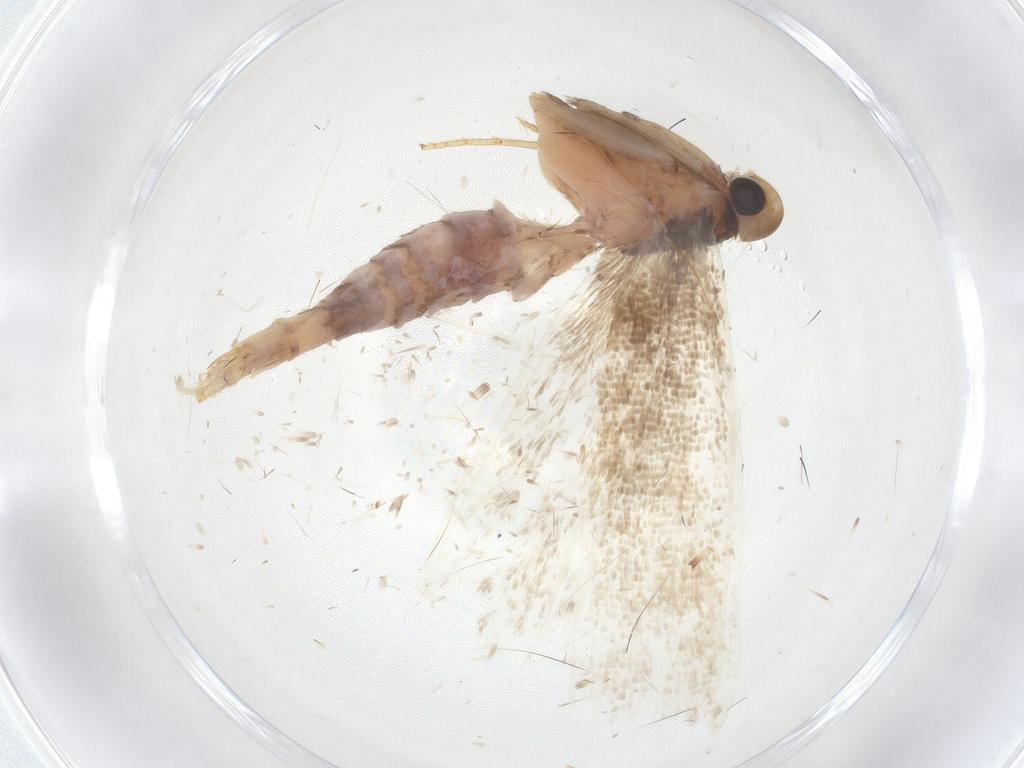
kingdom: Animalia
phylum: Arthropoda
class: Insecta
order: Lepidoptera
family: Gelechiidae
